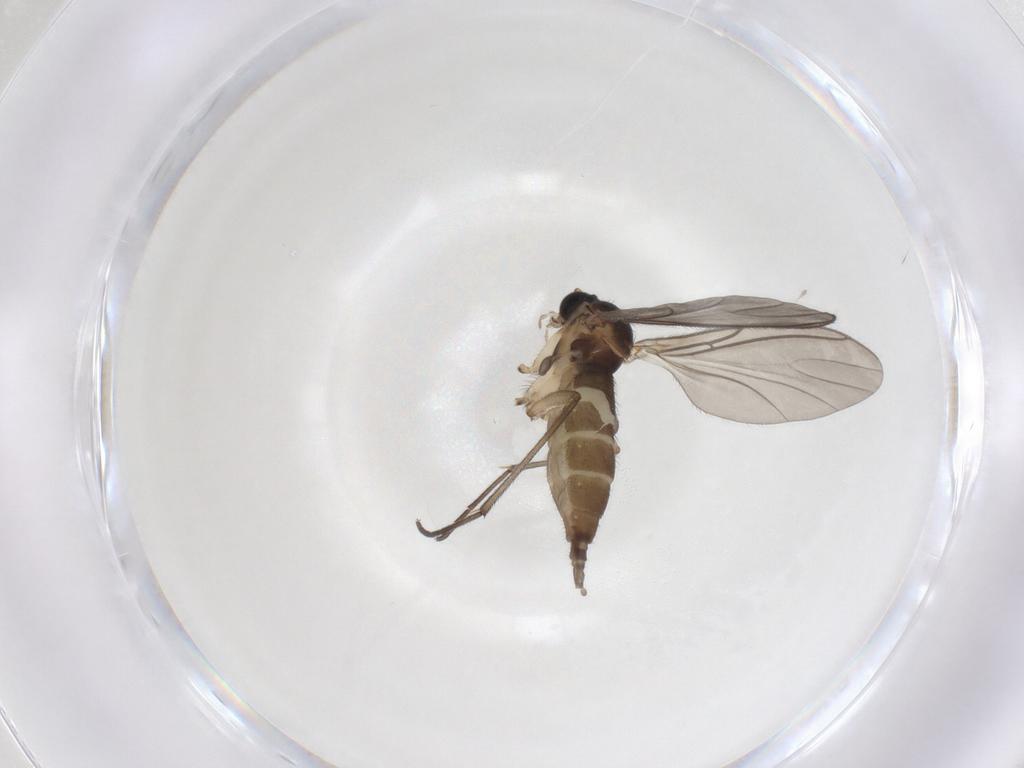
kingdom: Animalia
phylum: Arthropoda
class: Insecta
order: Diptera
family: Sciaridae
